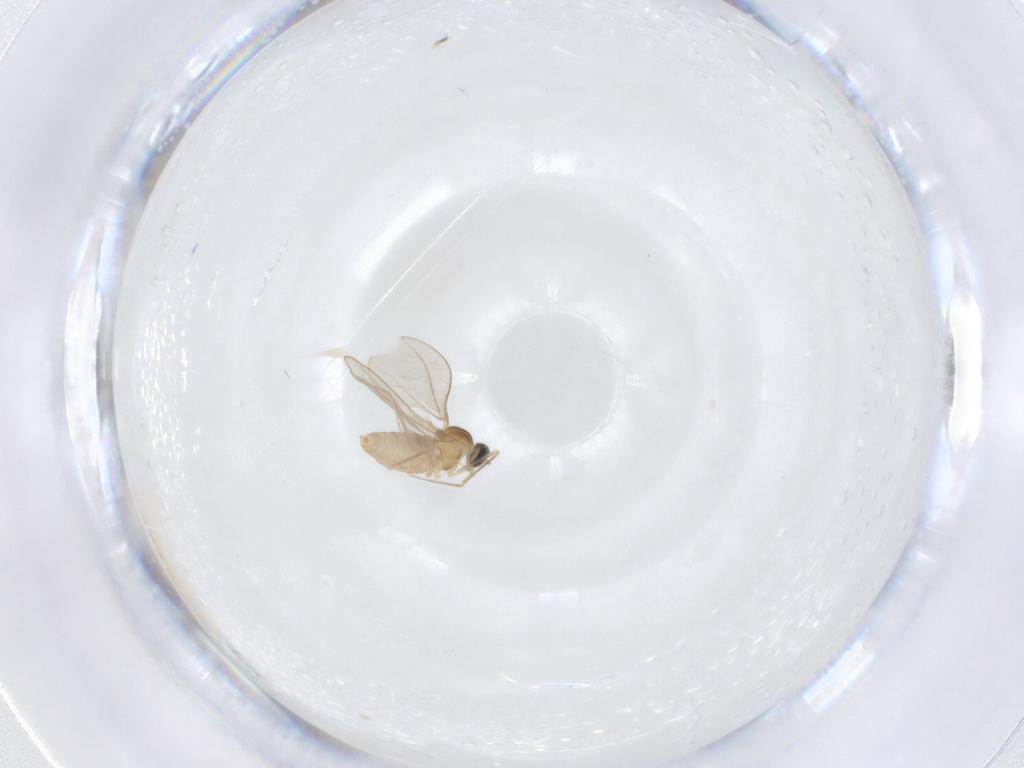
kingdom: Animalia
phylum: Arthropoda
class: Insecta
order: Diptera
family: Cecidomyiidae
